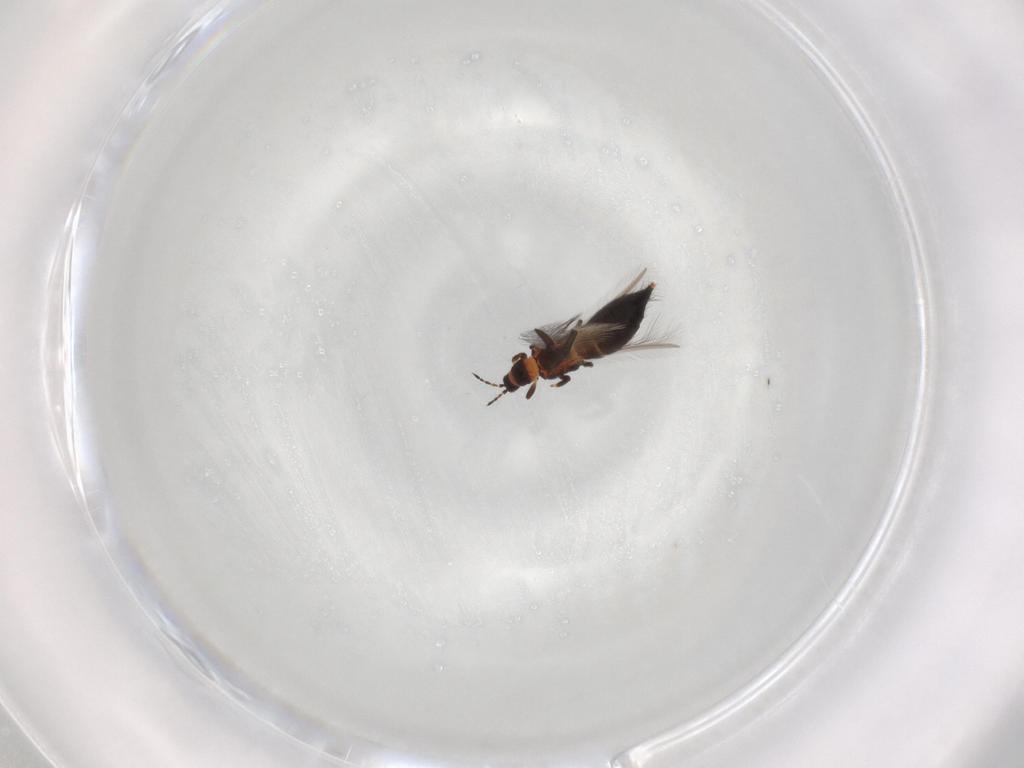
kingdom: Animalia
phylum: Arthropoda
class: Insecta
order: Thysanoptera
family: Thripidae
